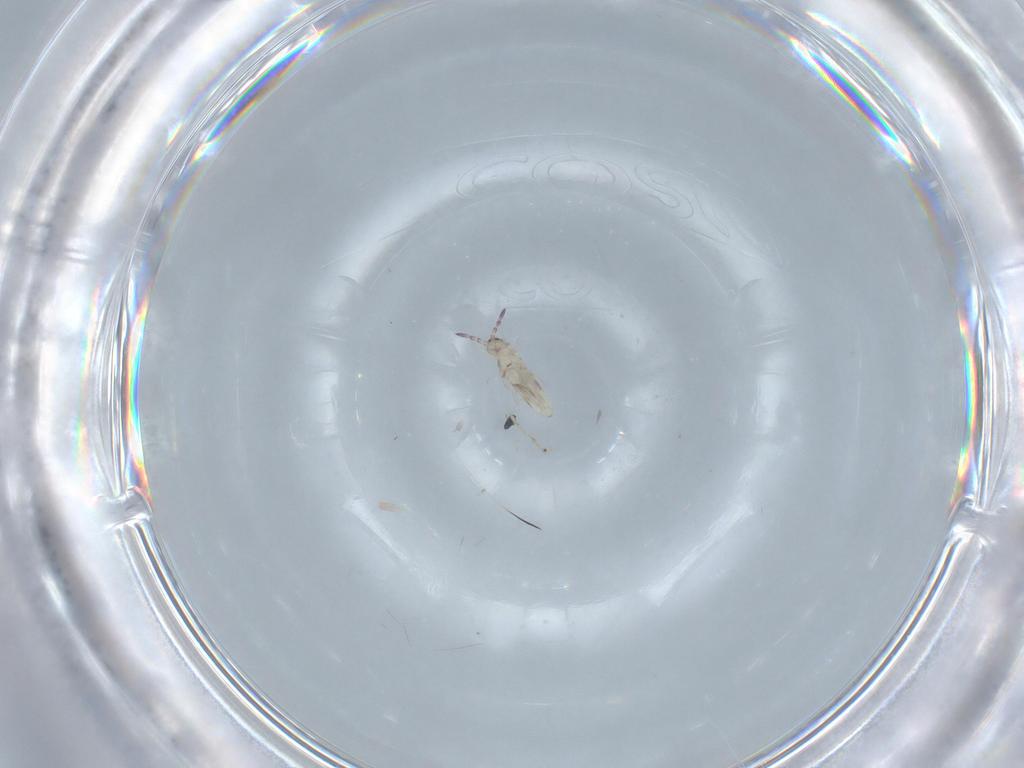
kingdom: Animalia
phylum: Arthropoda
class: Collembola
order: Entomobryomorpha
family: Entomobryidae
